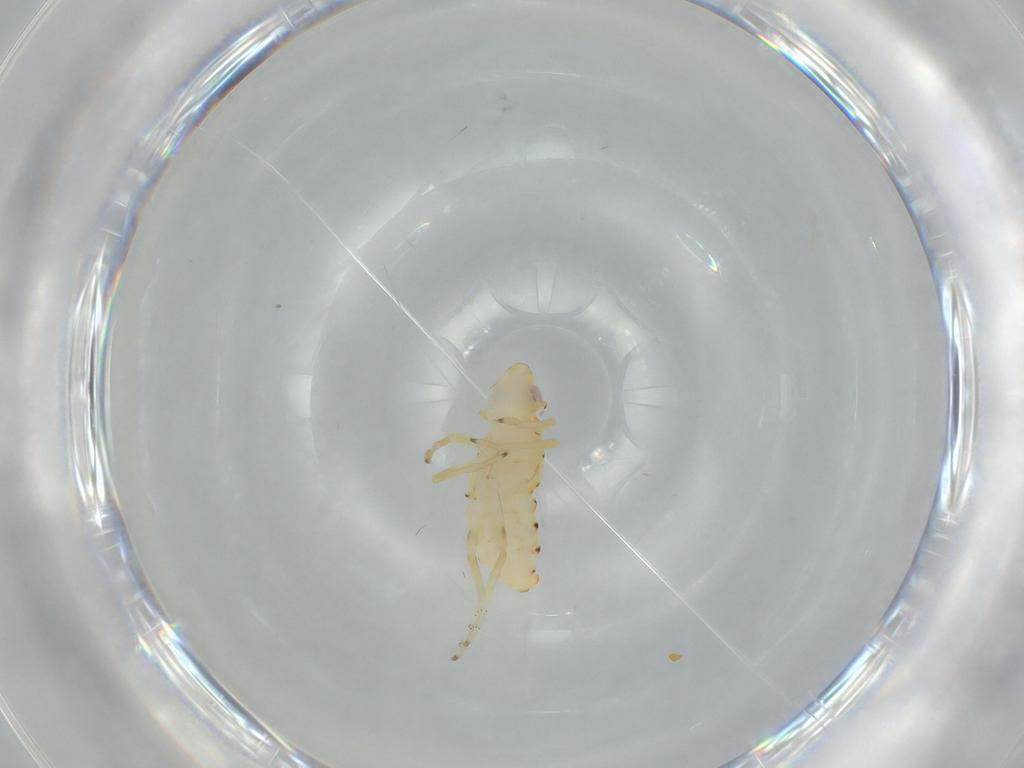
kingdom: Animalia
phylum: Arthropoda
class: Insecta
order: Hemiptera
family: Tropiduchidae
